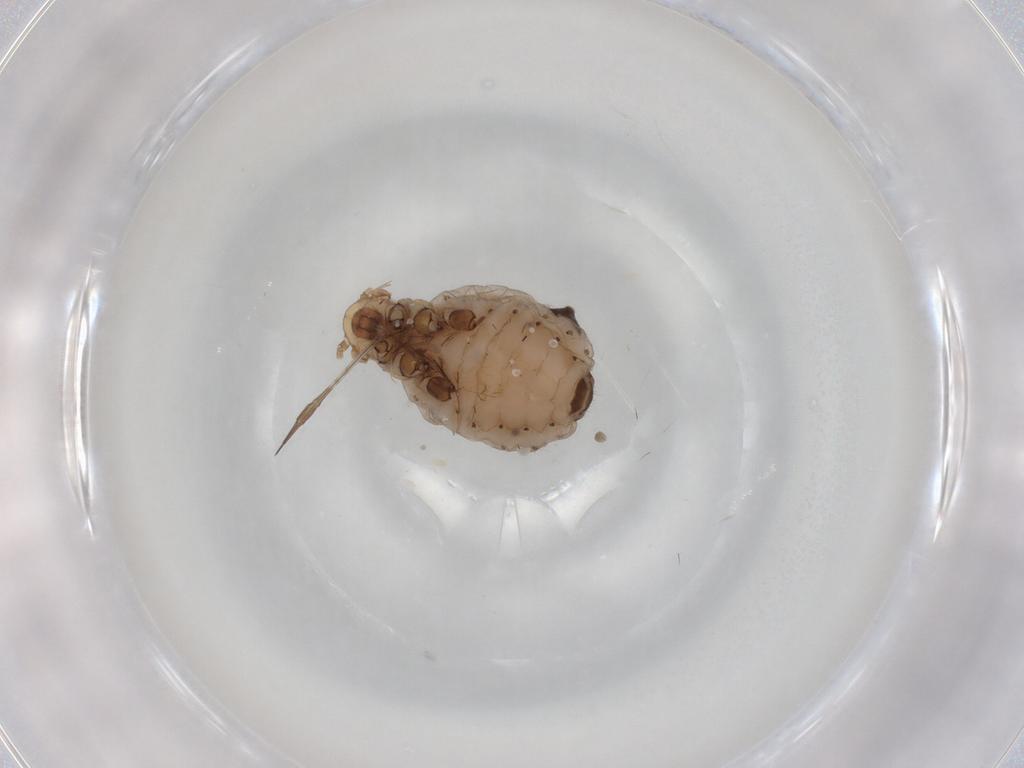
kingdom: Animalia
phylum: Arthropoda
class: Insecta
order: Hemiptera
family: Aphididae
